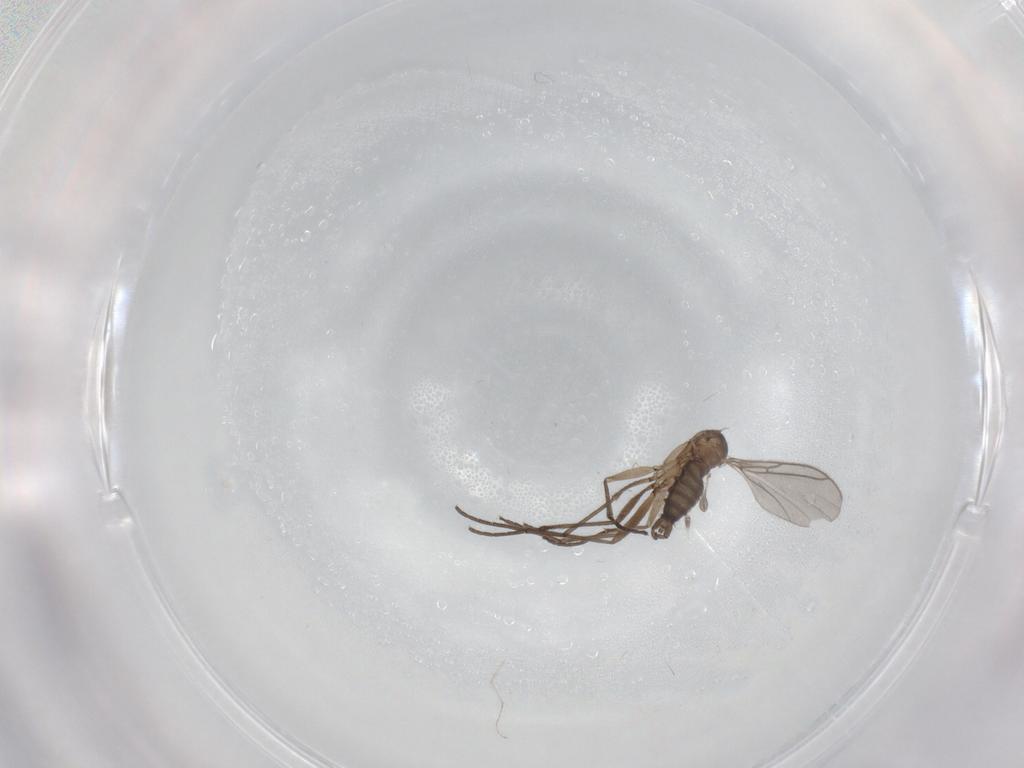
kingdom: Animalia
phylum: Arthropoda
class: Insecta
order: Diptera
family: Phoridae
